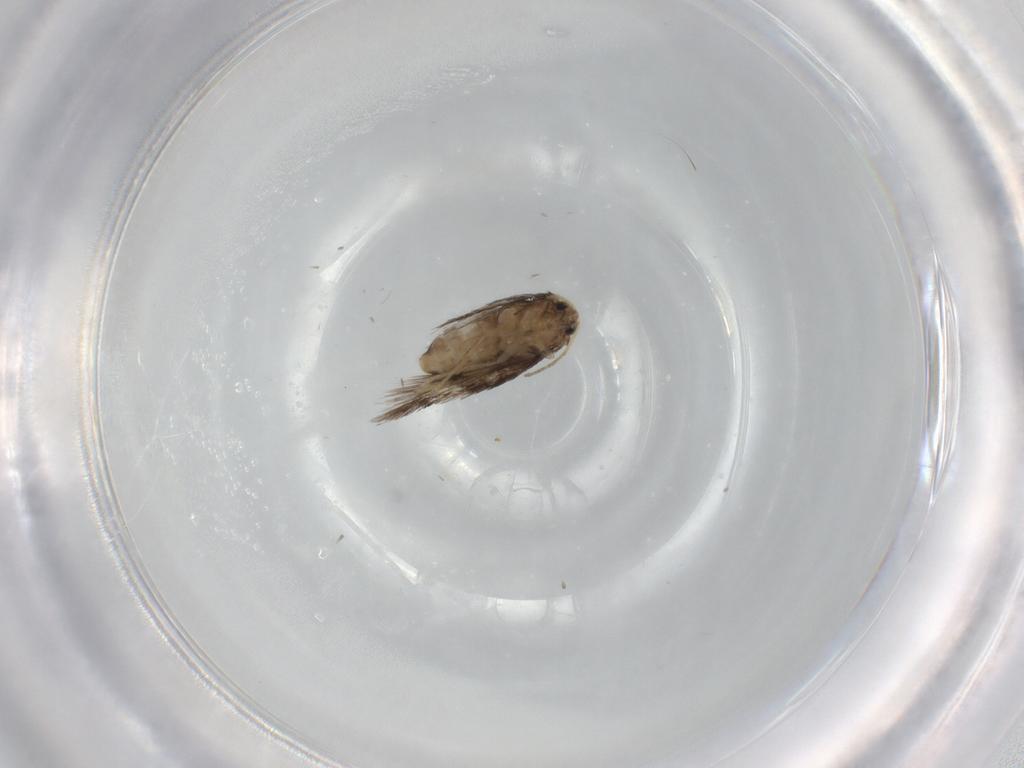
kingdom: Animalia
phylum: Arthropoda
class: Insecta
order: Lepidoptera
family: Nepticulidae
